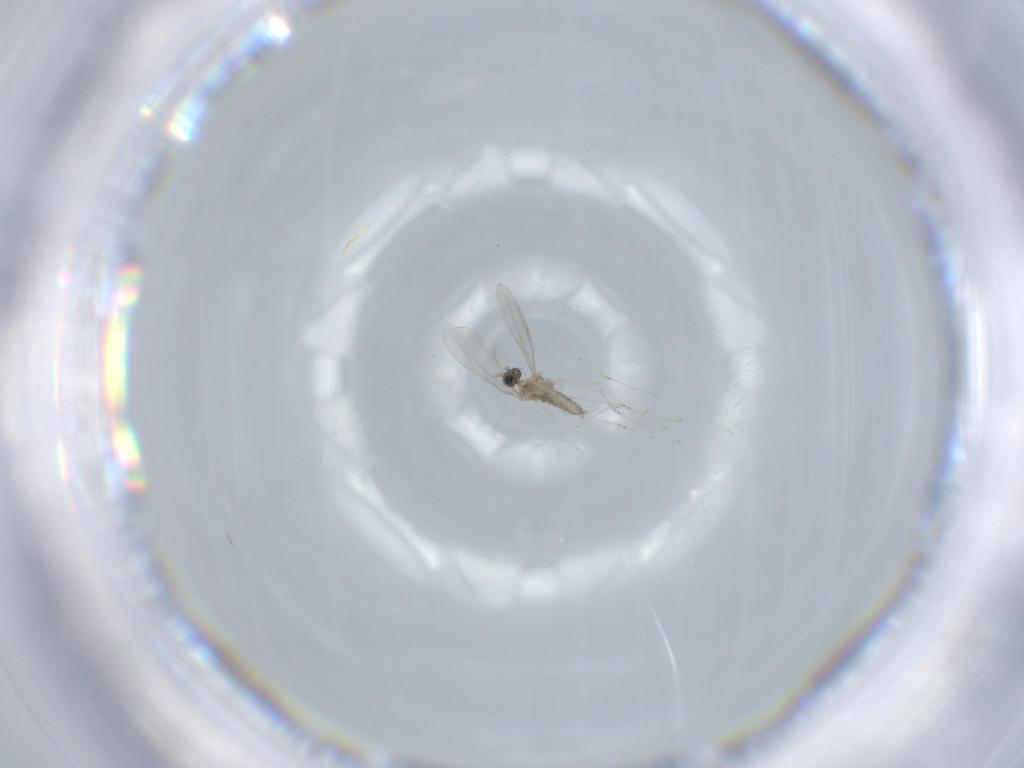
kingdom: Animalia
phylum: Arthropoda
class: Insecta
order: Diptera
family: Cecidomyiidae
